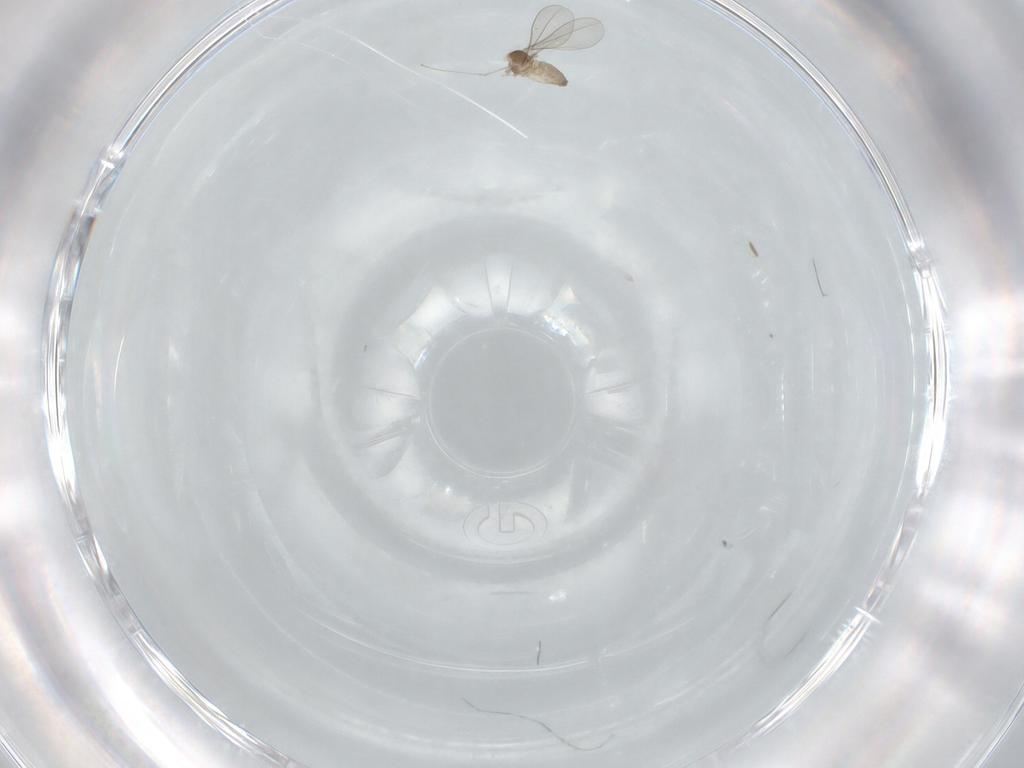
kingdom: Animalia
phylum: Arthropoda
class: Insecta
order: Diptera
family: Cecidomyiidae
